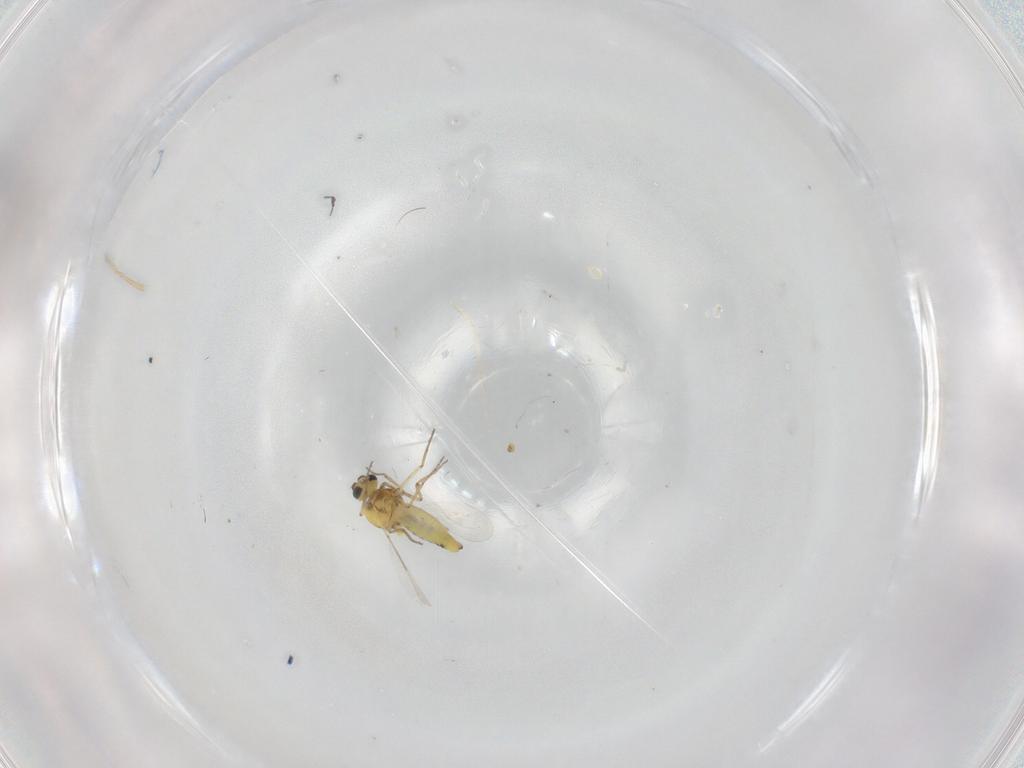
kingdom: Animalia
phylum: Arthropoda
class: Insecta
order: Diptera
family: Ceratopogonidae
